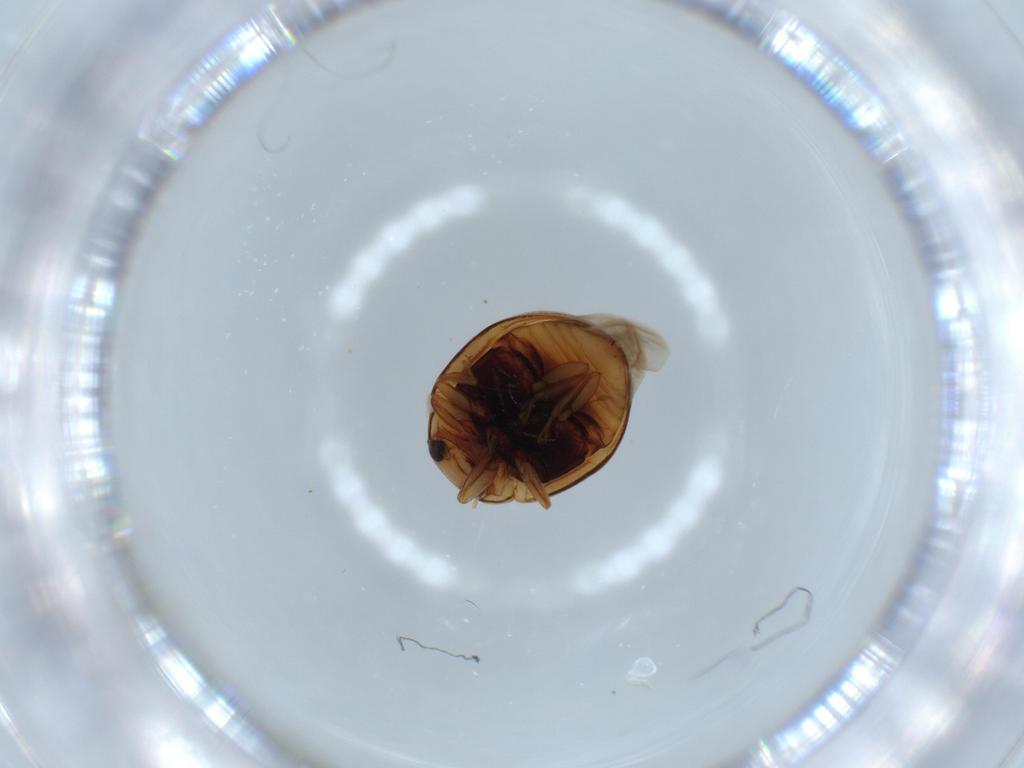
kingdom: Animalia
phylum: Arthropoda
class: Insecta
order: Coleoptera
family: Coccinellidae
